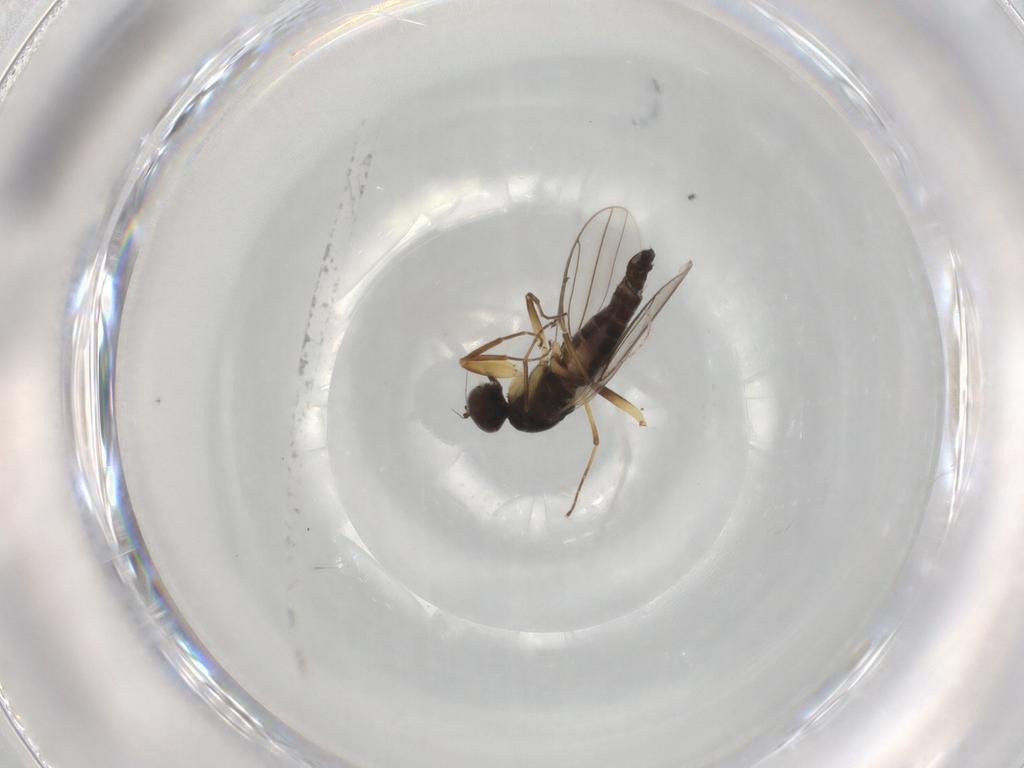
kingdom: Animalia
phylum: Arthropoda
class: Insecta
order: Diptera
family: Hybotidae
